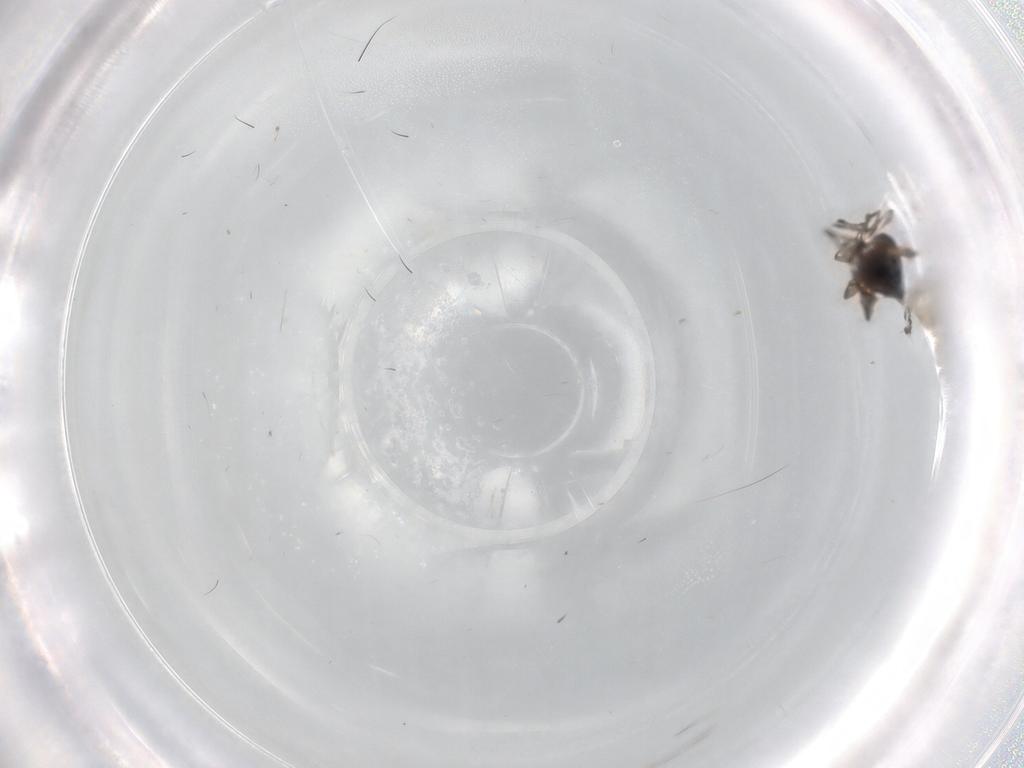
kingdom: Animalia
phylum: Arthropoda
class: Insecta
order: Hymenoptera
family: Diapriidae
